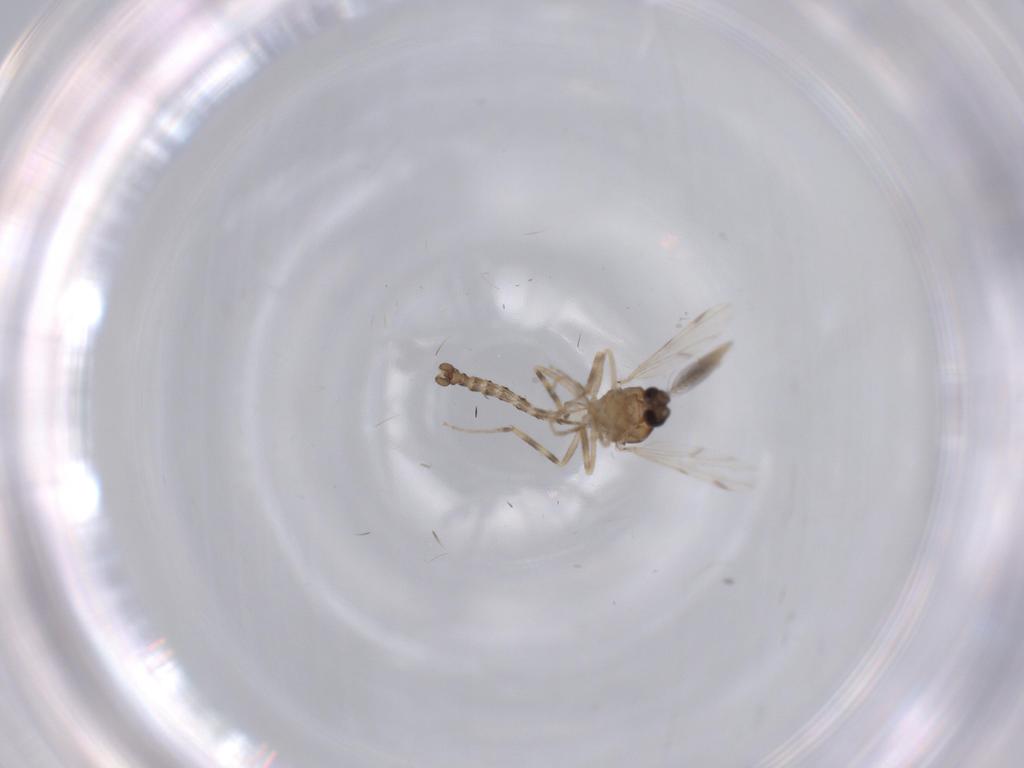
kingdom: Animalia
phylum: Arthropoda
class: Insecta
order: Diptera
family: Ceratopogonidae
